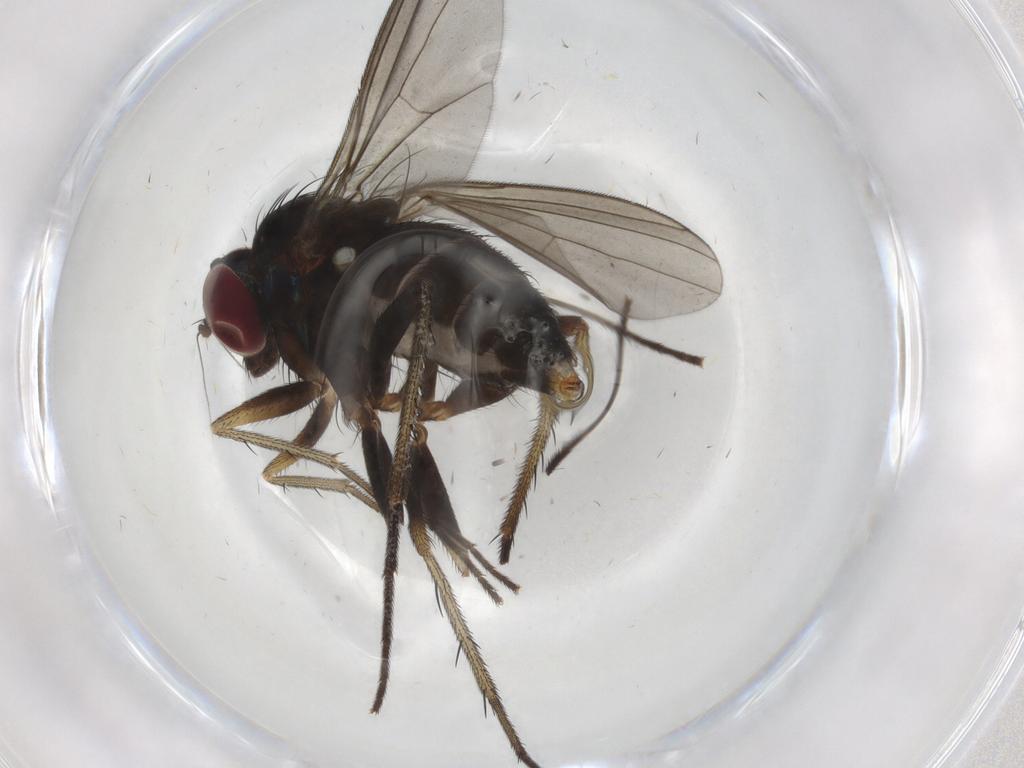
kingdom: Animalia
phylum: Arthropoda
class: Insecta
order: Diptera
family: Dolichopodidae
